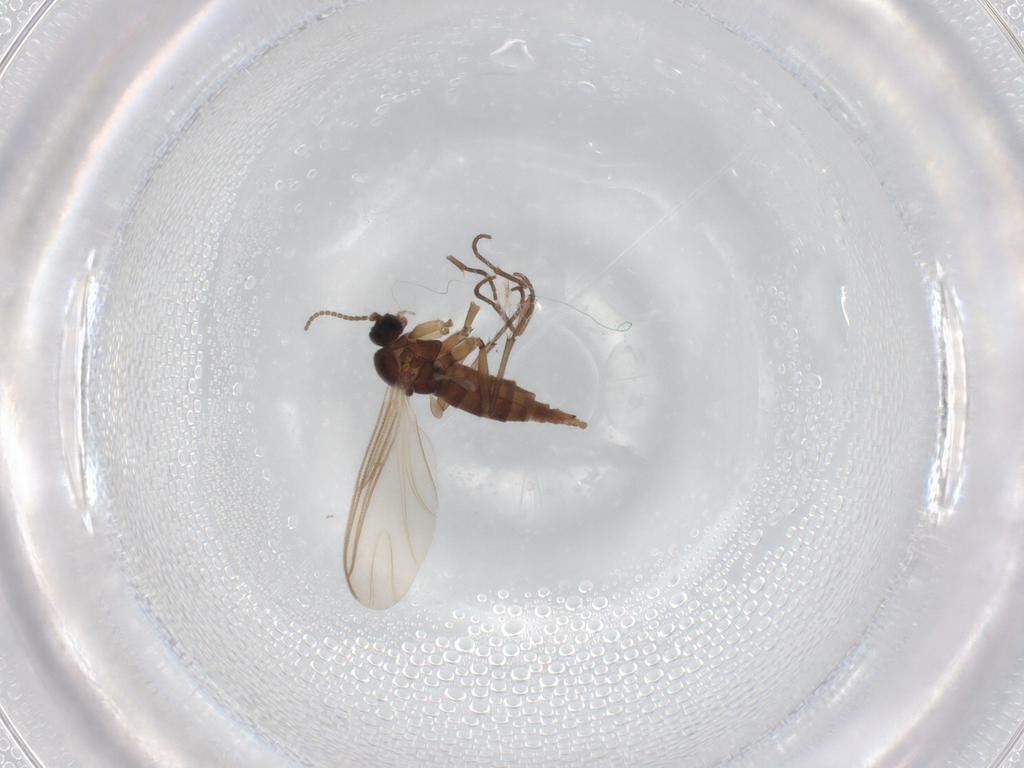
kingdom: Animalia
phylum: Arthropoda
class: Insecta
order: Diptera
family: Sciaridae
